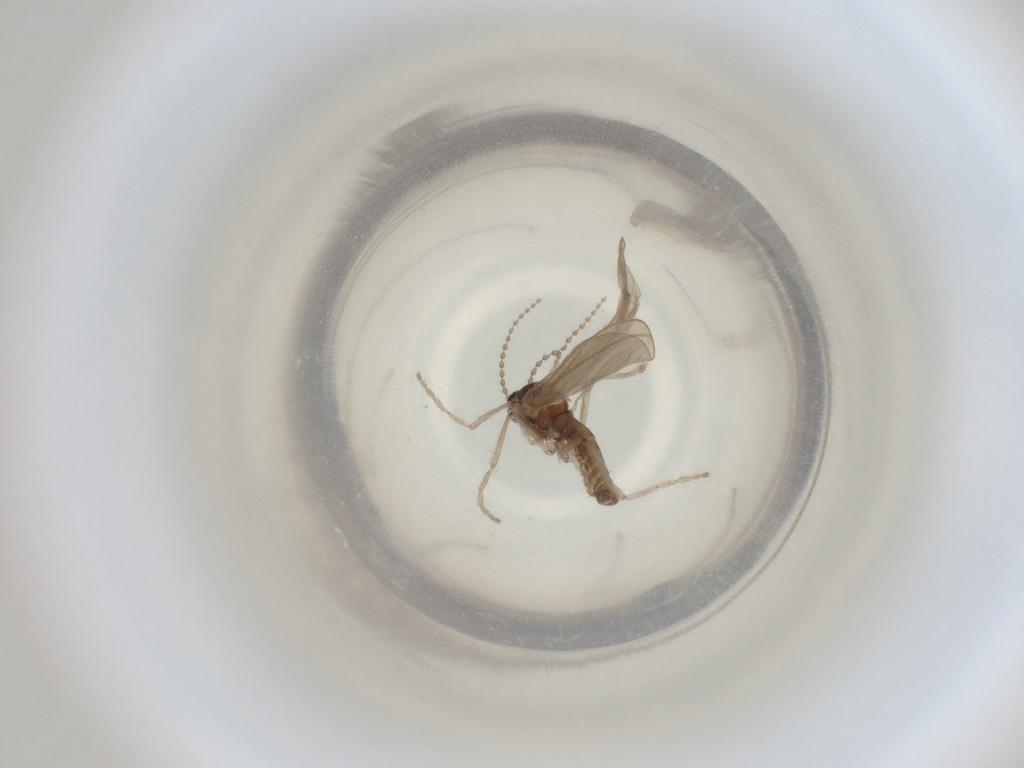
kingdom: Animalia
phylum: Arthropoda
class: Insecta
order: Diptera
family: Cecidomyiidae
